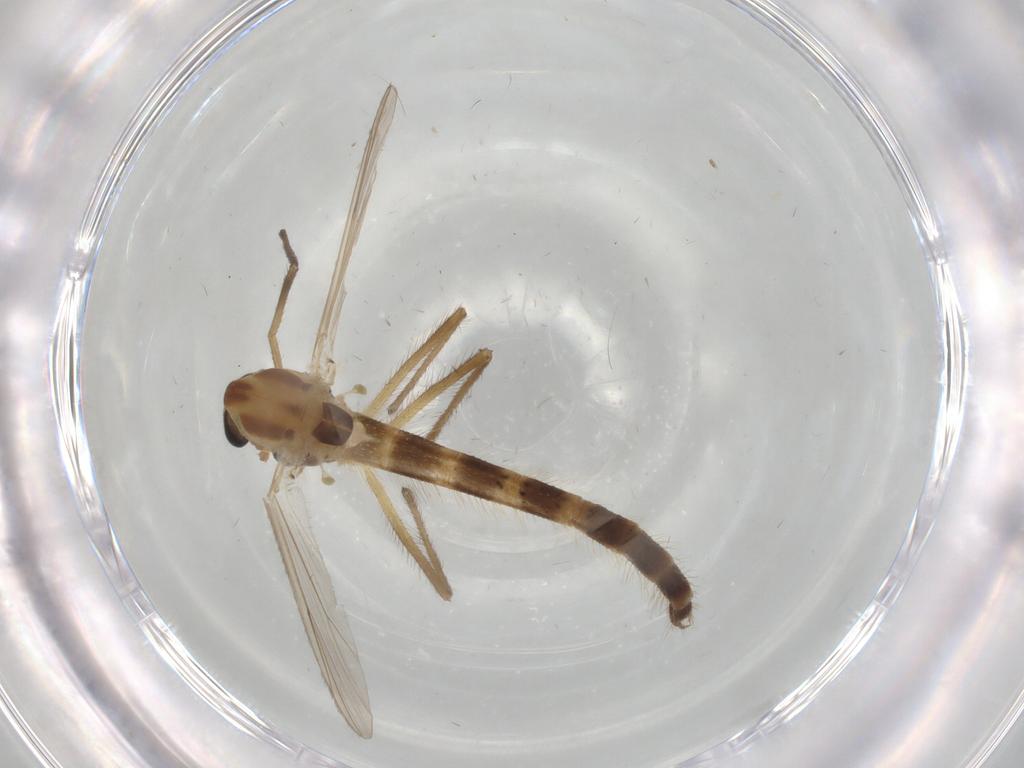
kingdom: Animalia
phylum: Arthropoda
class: Insecta
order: Diptera
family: Chironomidae
